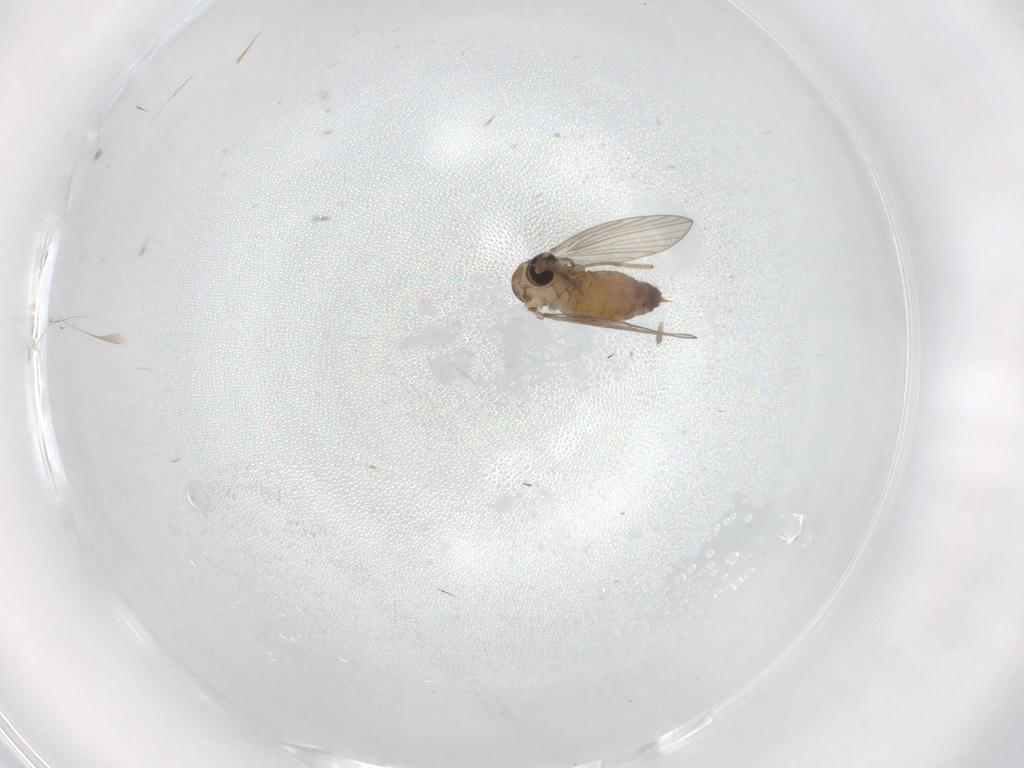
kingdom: Animalia
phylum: Arthropoda
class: Insecta
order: Diptera
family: Psychodidae
